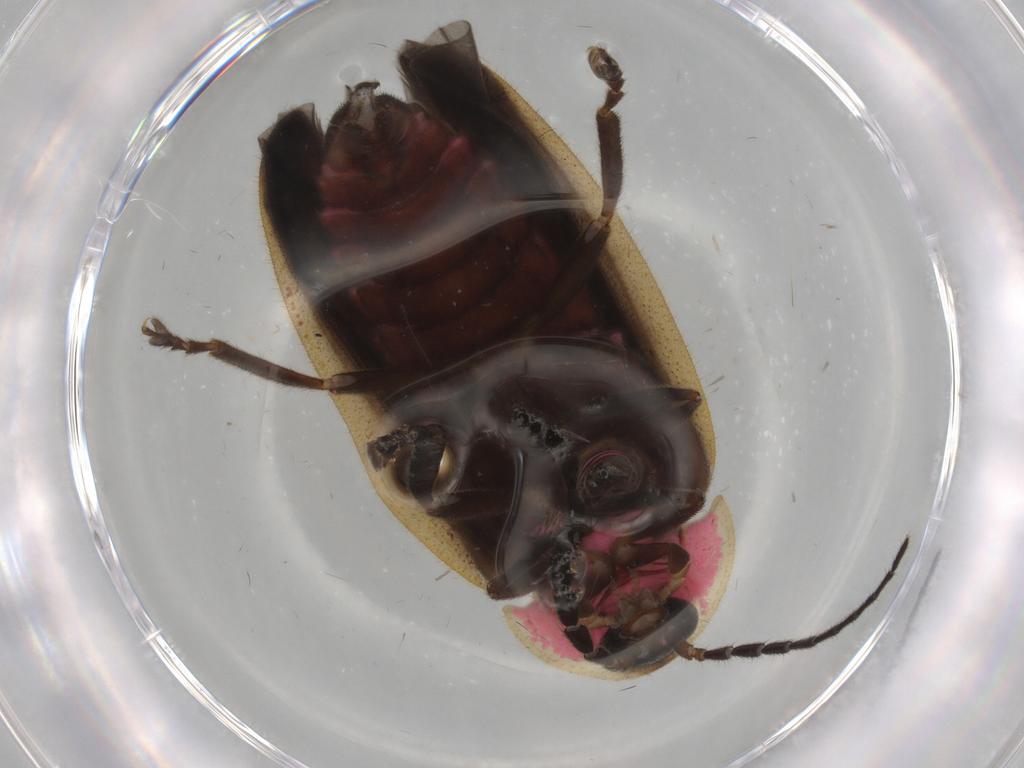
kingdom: Animalia
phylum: Arthropoda
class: Insecta
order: Coleoptera
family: Lampyridae
